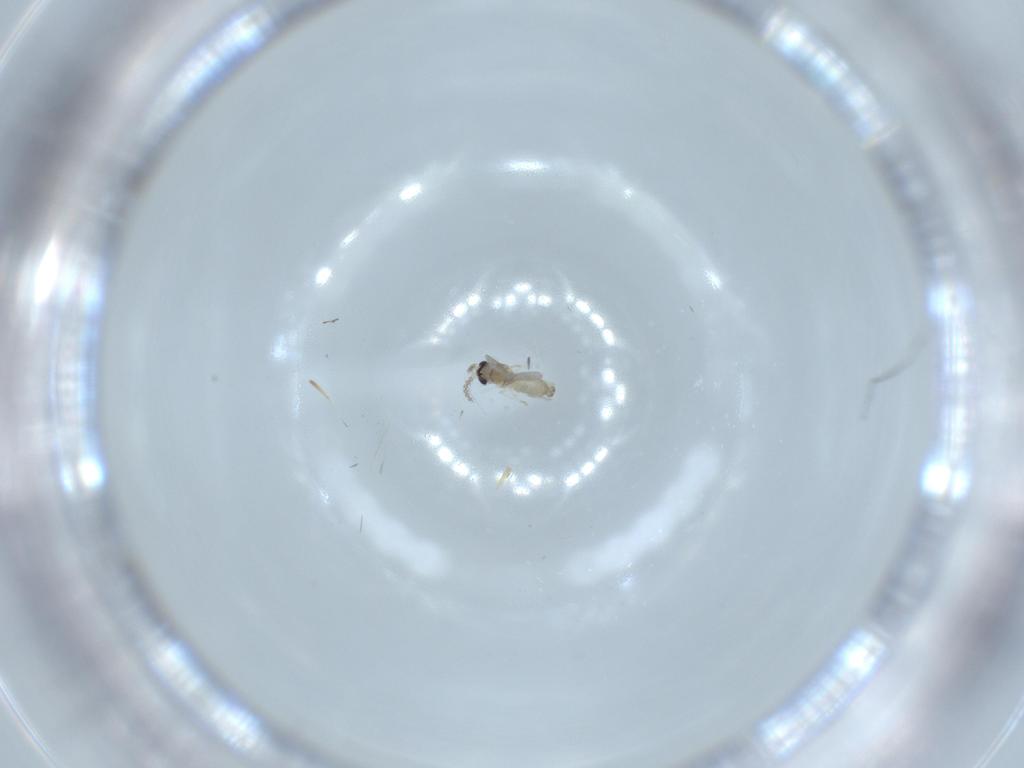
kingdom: Animalia
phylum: Arthropoda
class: Insecta
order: Diptera
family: Cecidomyiidae
